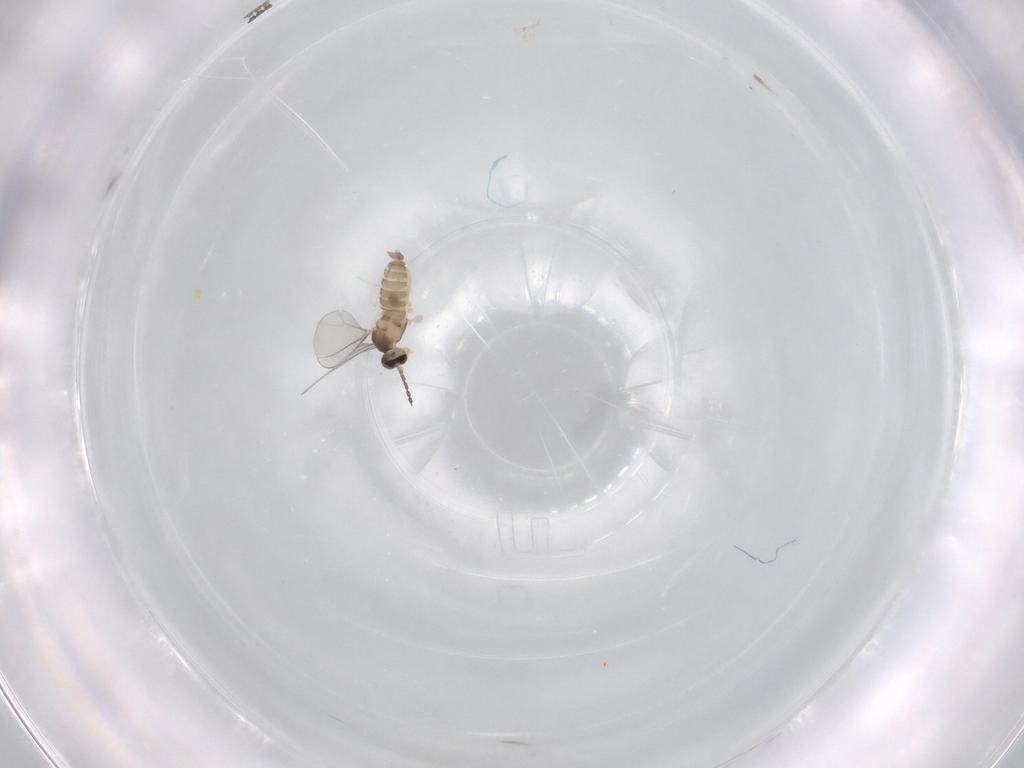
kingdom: Animalia
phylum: Arthropoda
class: Insecta
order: Diptera
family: Cecidomyiidae
